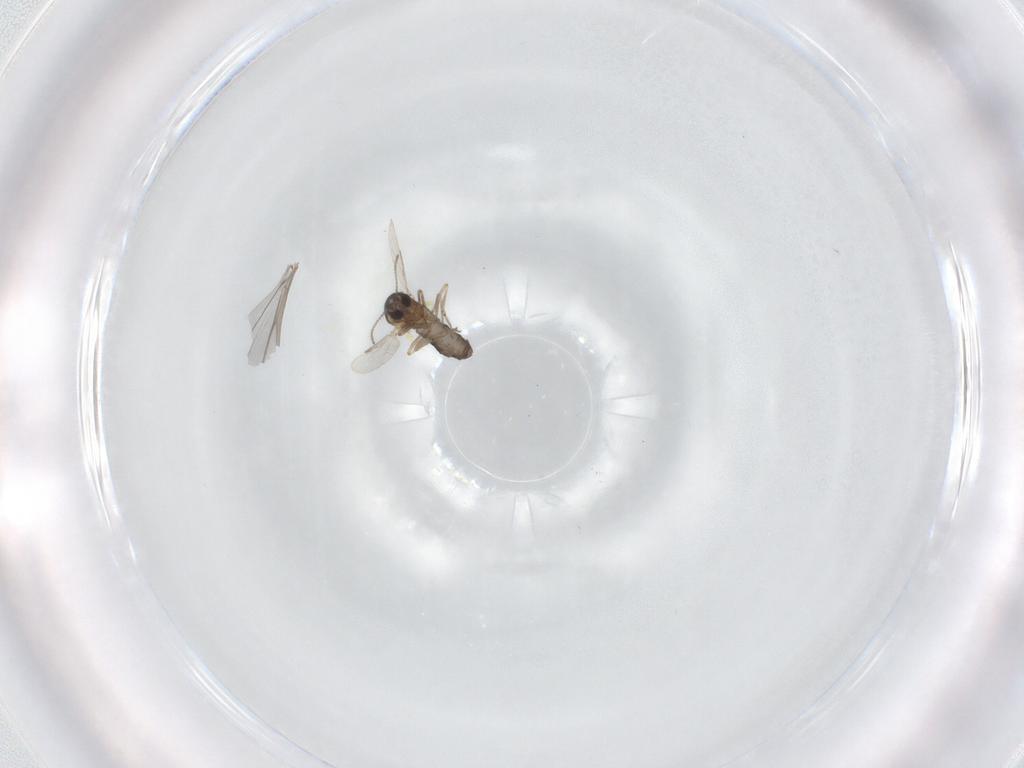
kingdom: Animalia
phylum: Arthropoda
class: Insecta
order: Diptera
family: Ceratopogonidae
